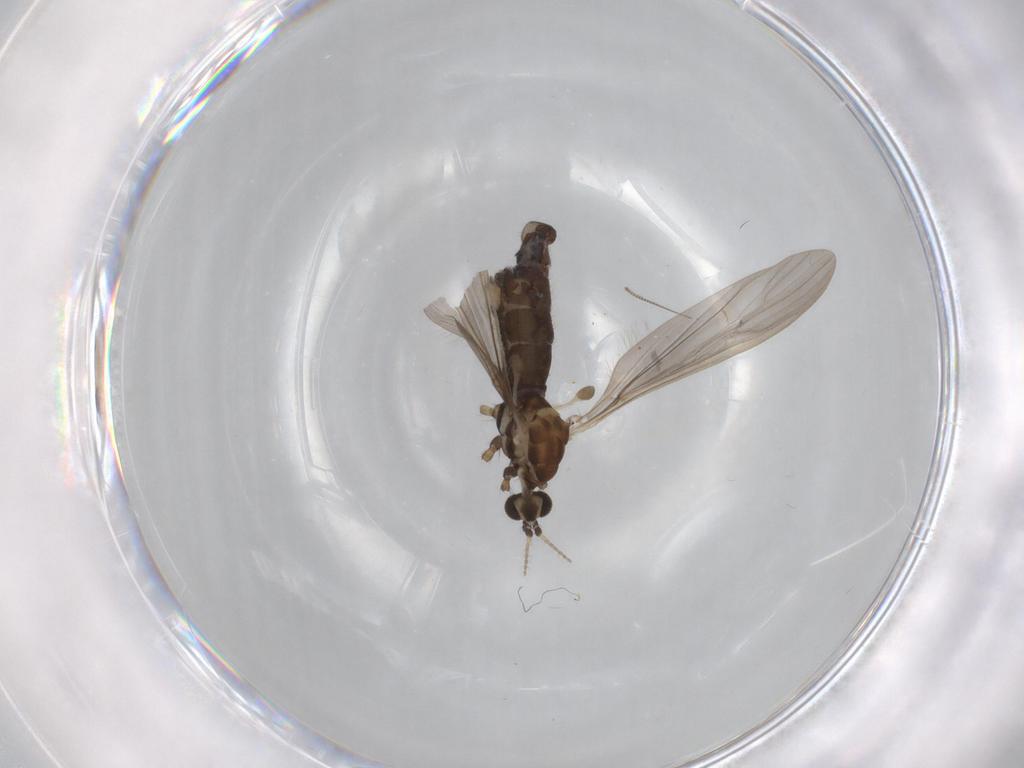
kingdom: Animalia
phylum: Arthropoda
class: Insecta
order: Diptera
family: Limoniidae
